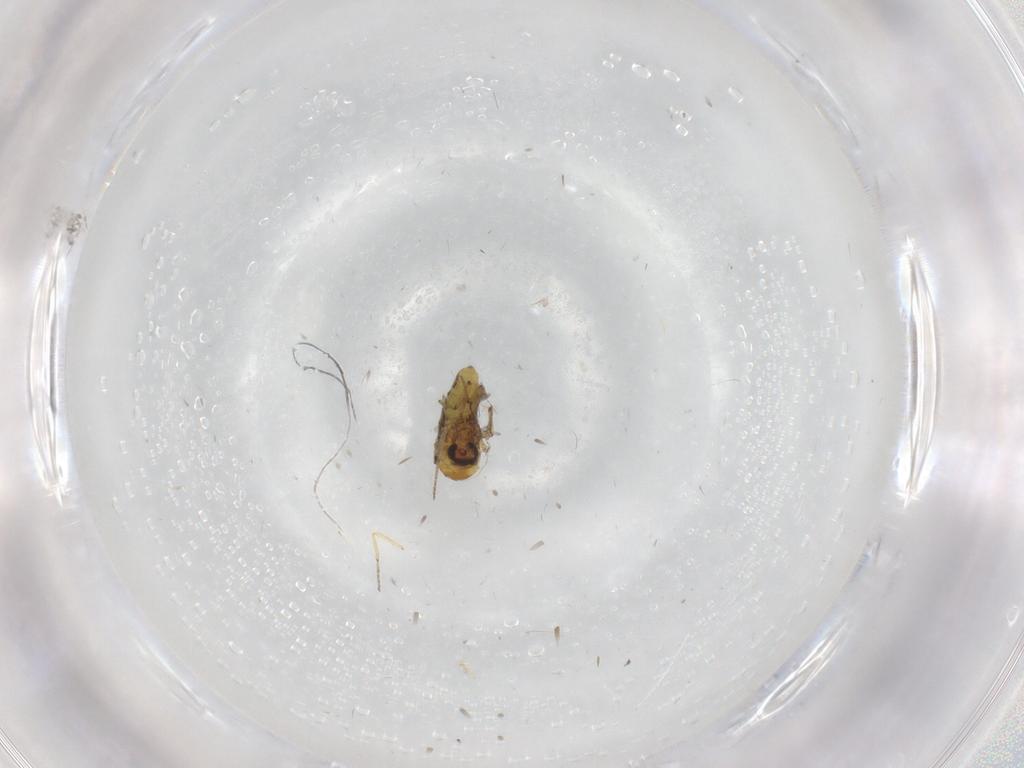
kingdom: Animalia
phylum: Arthropoda
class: Insecta
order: Diptera
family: Ceratopogonidae
